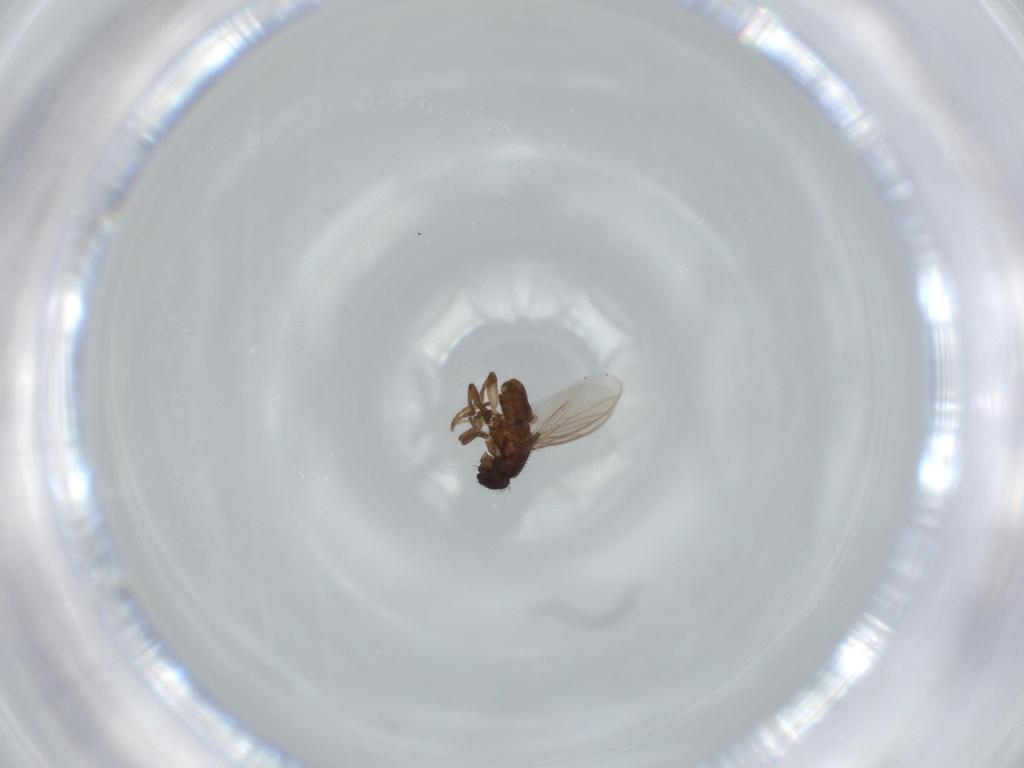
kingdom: Animalia
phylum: Arthropoda
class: Insecta
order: Diptera
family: Sphaeroceridae
